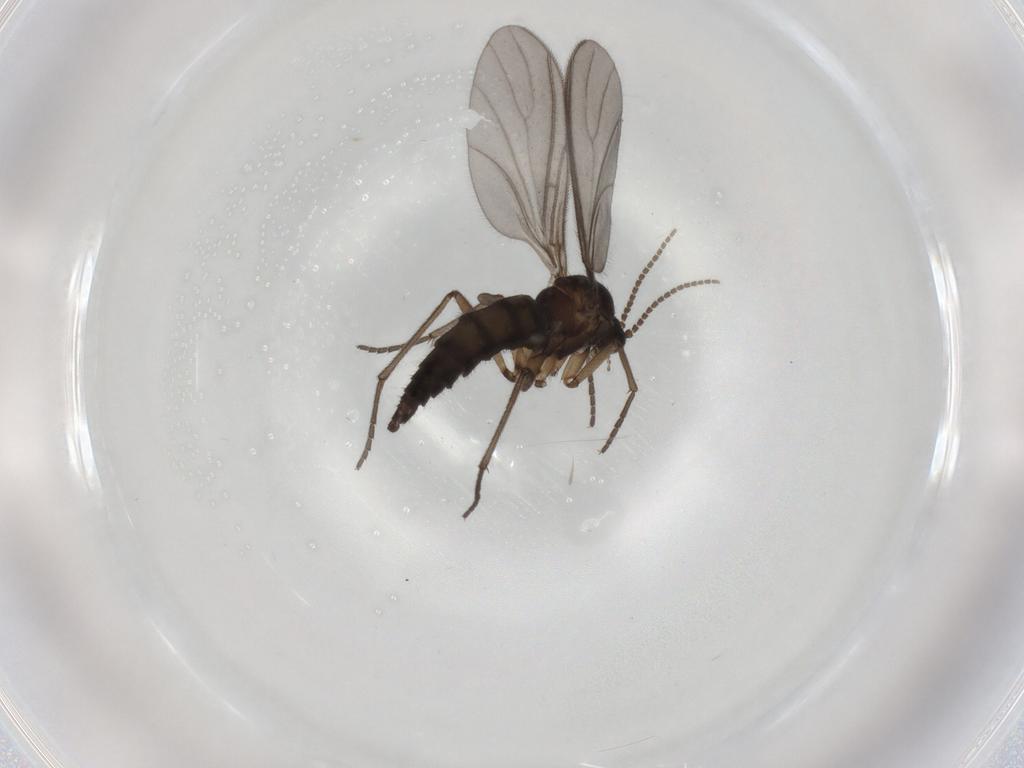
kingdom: Animalia
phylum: Arthropoda
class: Insecta
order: Diptera
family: Sciaridae
